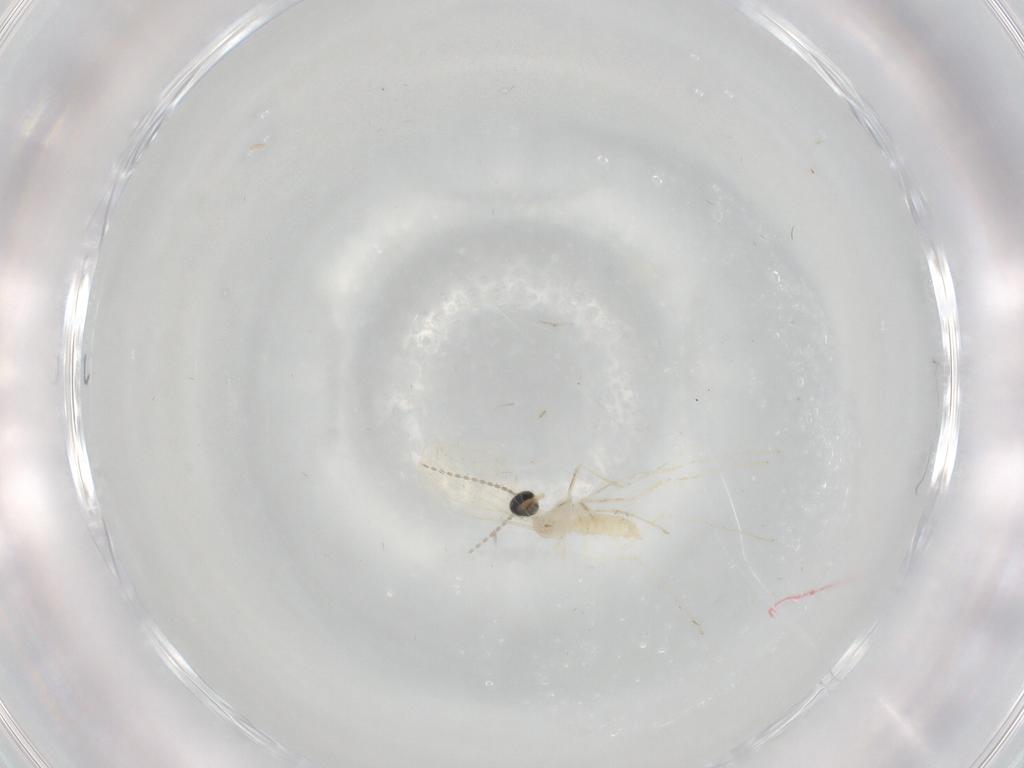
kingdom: Animalia
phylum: Arthropoda
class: Insecta
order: Diptera
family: Cecidomyiidae
